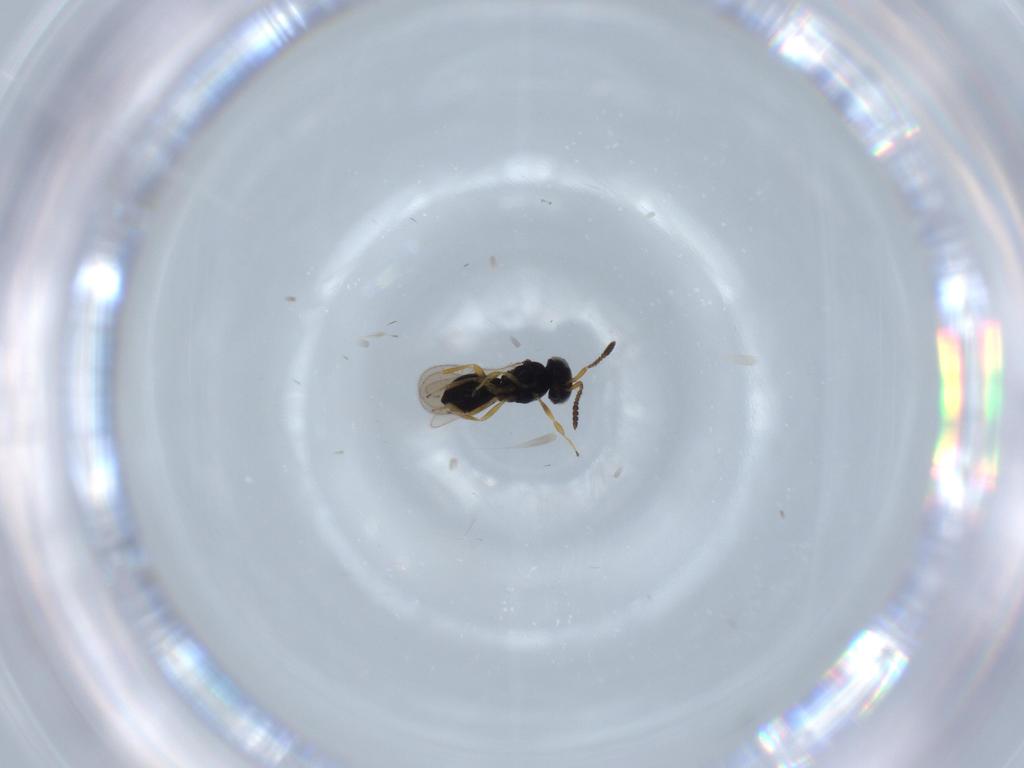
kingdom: Animalia
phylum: Arthropoda
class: Insecta
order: Hymenoptera
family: Scelionidae
